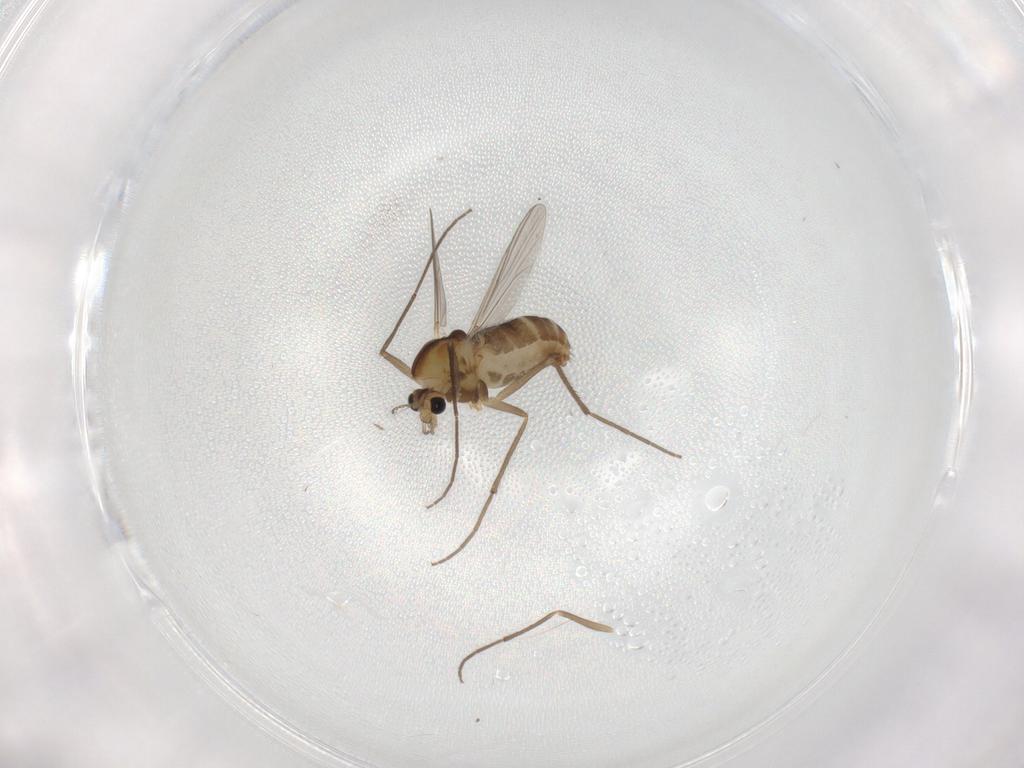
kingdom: Animalia
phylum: Arthropoda
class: Insecta
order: Diptera
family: Chironomidae
